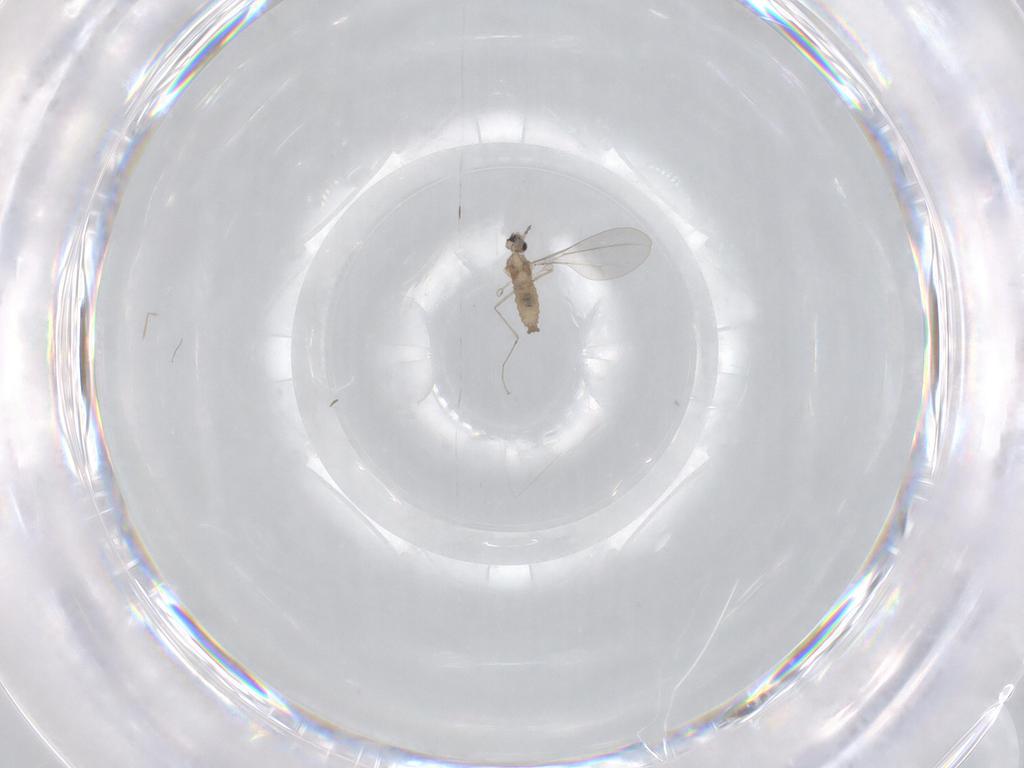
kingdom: Animalia
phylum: Arthropoda
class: Insecta
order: Diptera
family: Cecidomyiidae
